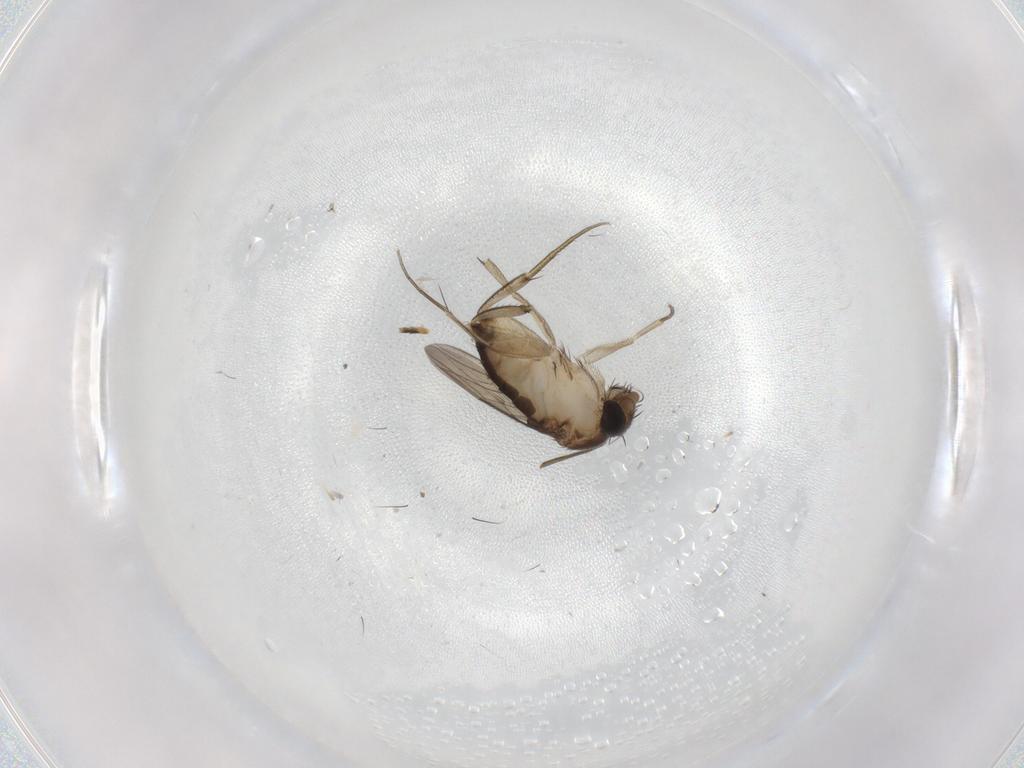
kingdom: Animalia
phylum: Arthropoda
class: Insecta
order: Diptera
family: Phoridae
